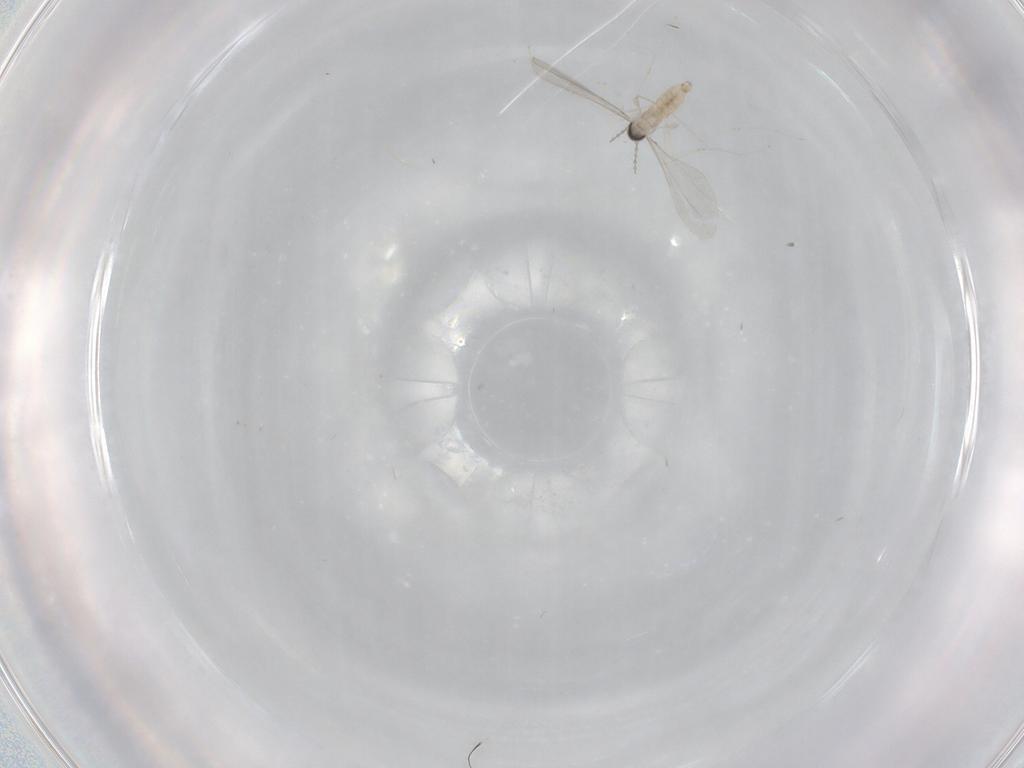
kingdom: Animalia
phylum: Arthropoda
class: Insecta
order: Diptera
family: Cecidomyiidae
